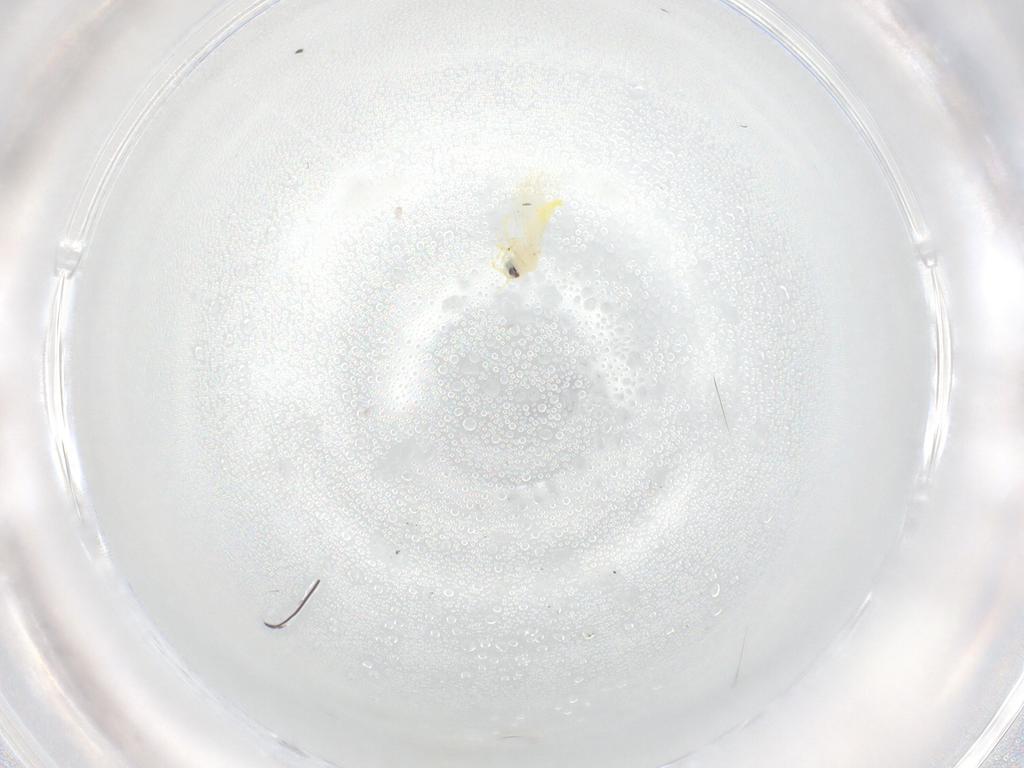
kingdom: Animalia
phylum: Arthropoda
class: Insecta
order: Hemiptera
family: Aleyrodidae
